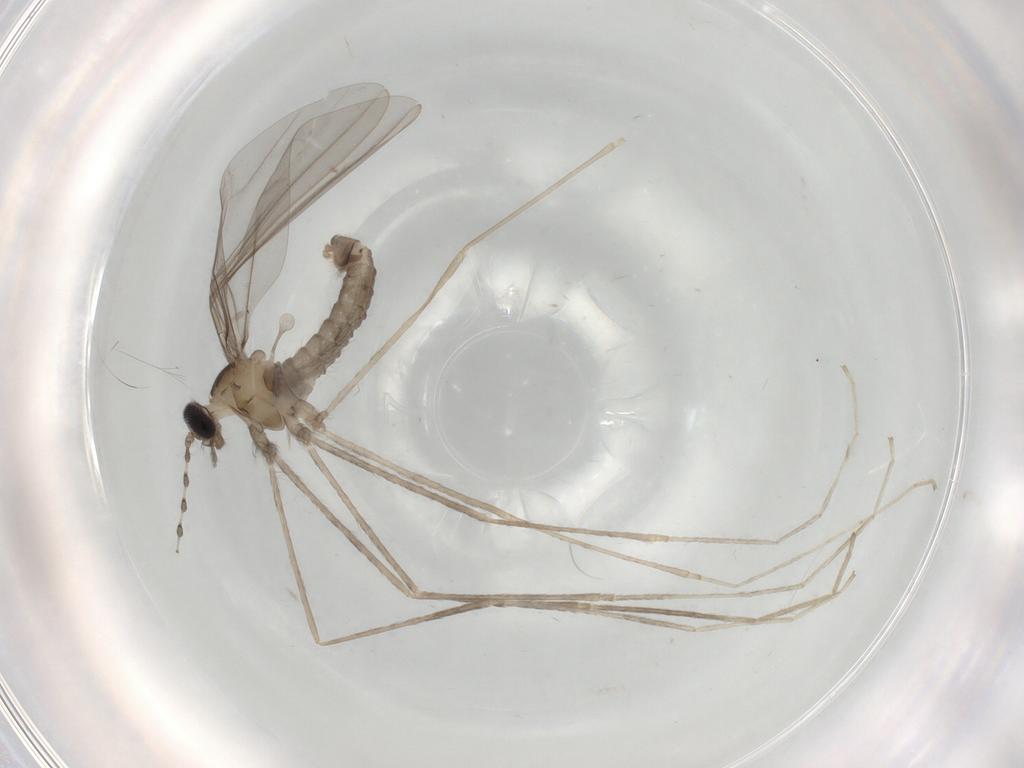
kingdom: Animalia
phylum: Arthropoda
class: Insecta
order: Diptera
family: Cecidomyiidae
